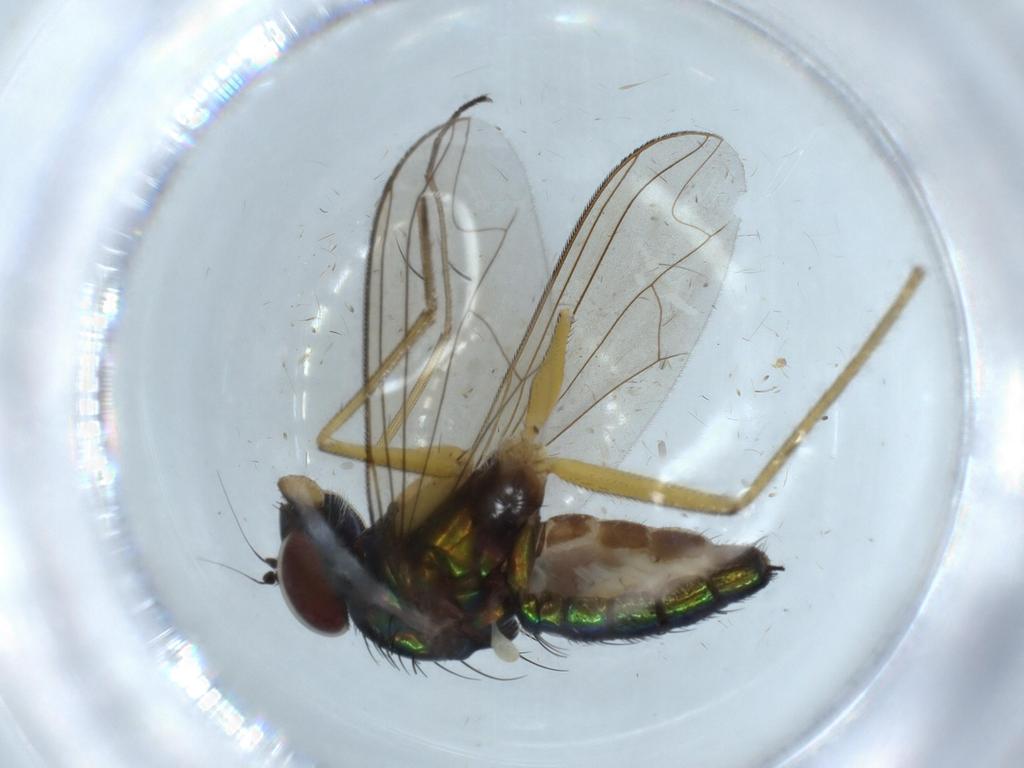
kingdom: Animalia
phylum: Arthropoda
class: Insecta
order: Diptera
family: Dolichopodidae
